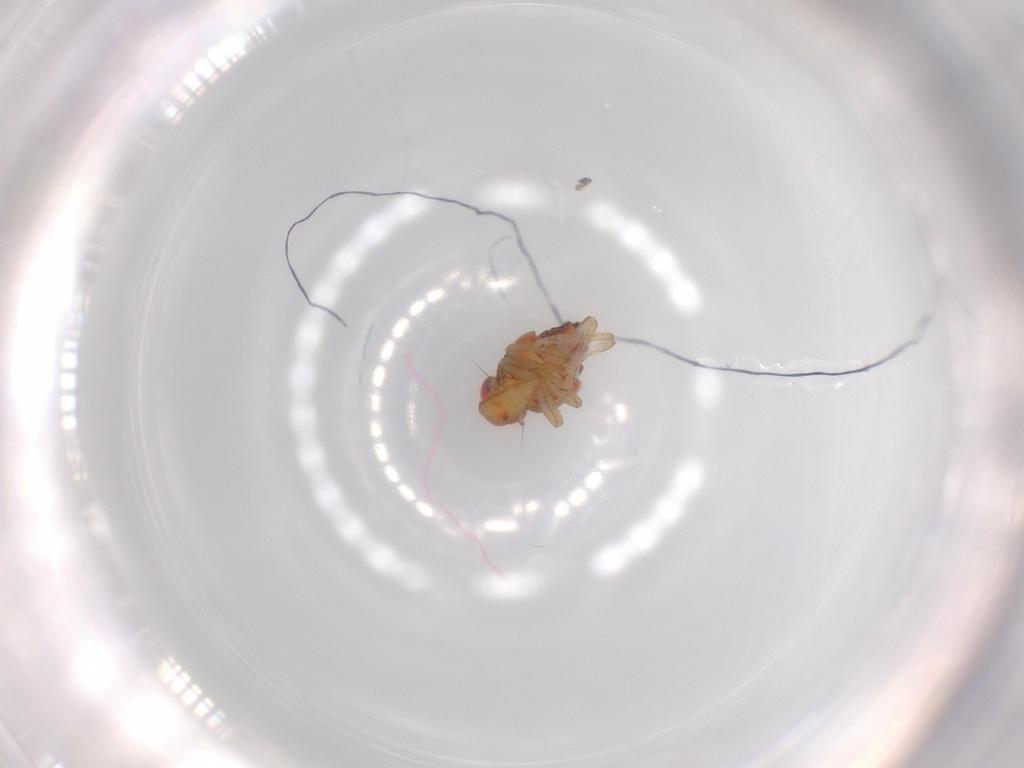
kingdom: Animalia
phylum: Arthropoda
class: Insecta
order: Hemiptera
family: Issidae
